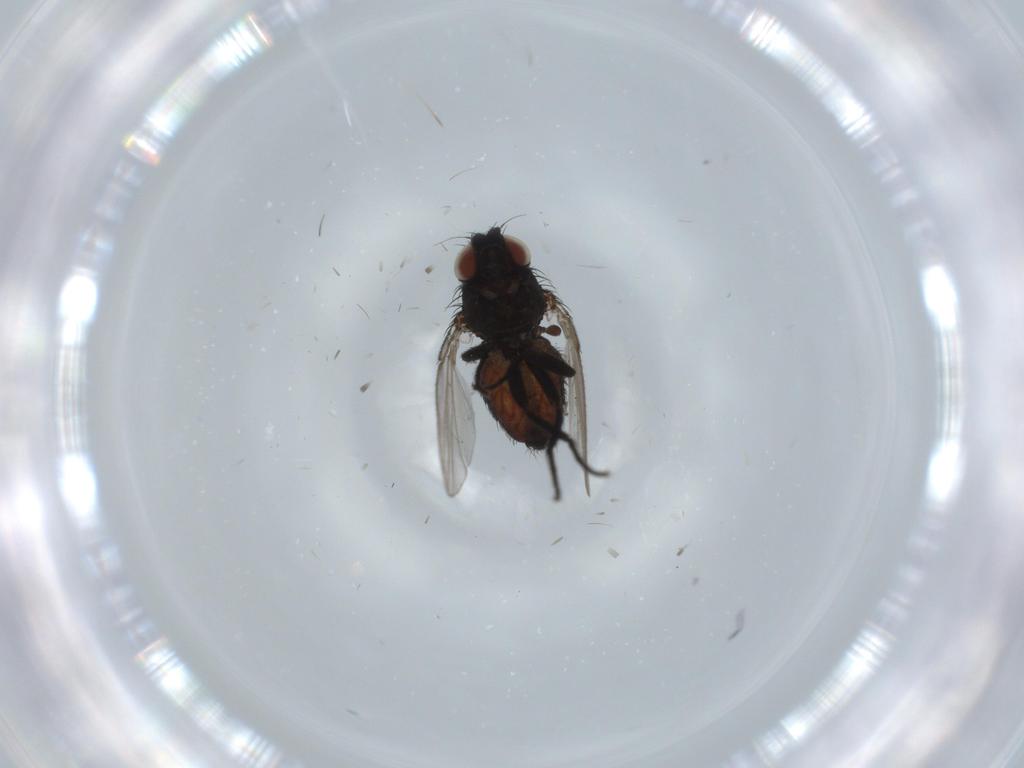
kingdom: Animalia
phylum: Arthropoda
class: Insecta
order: Diptera
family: Milichiidae
